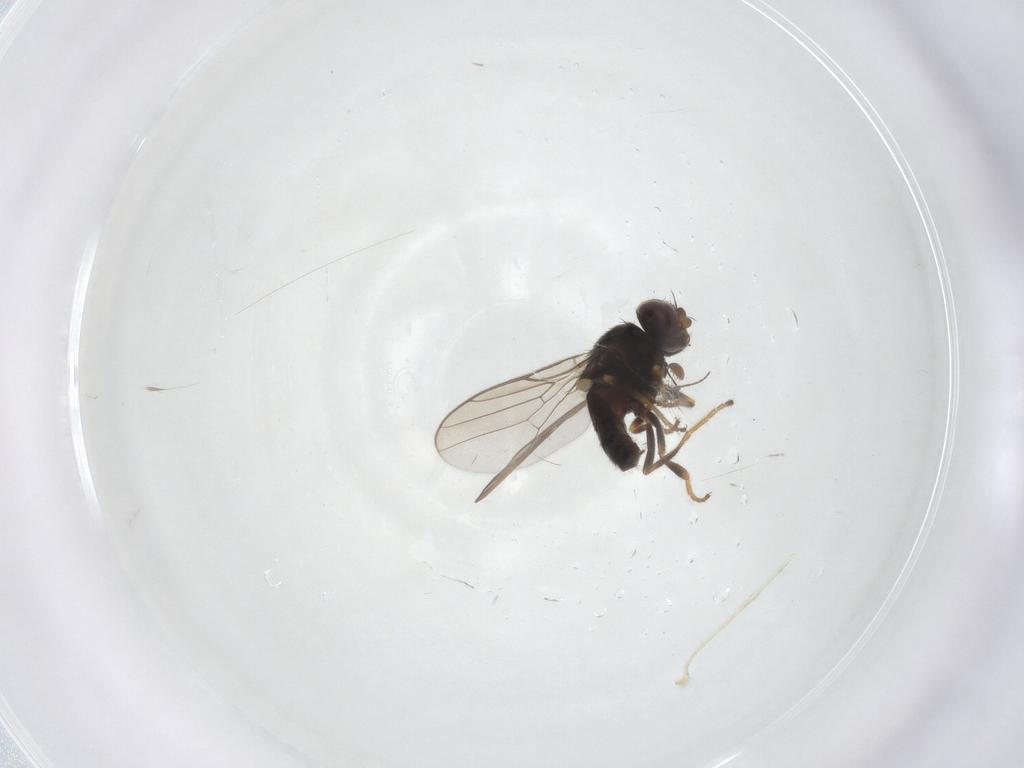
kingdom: Animalia
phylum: Arthropoda
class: Insecta
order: Diptera
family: Chloropidae
